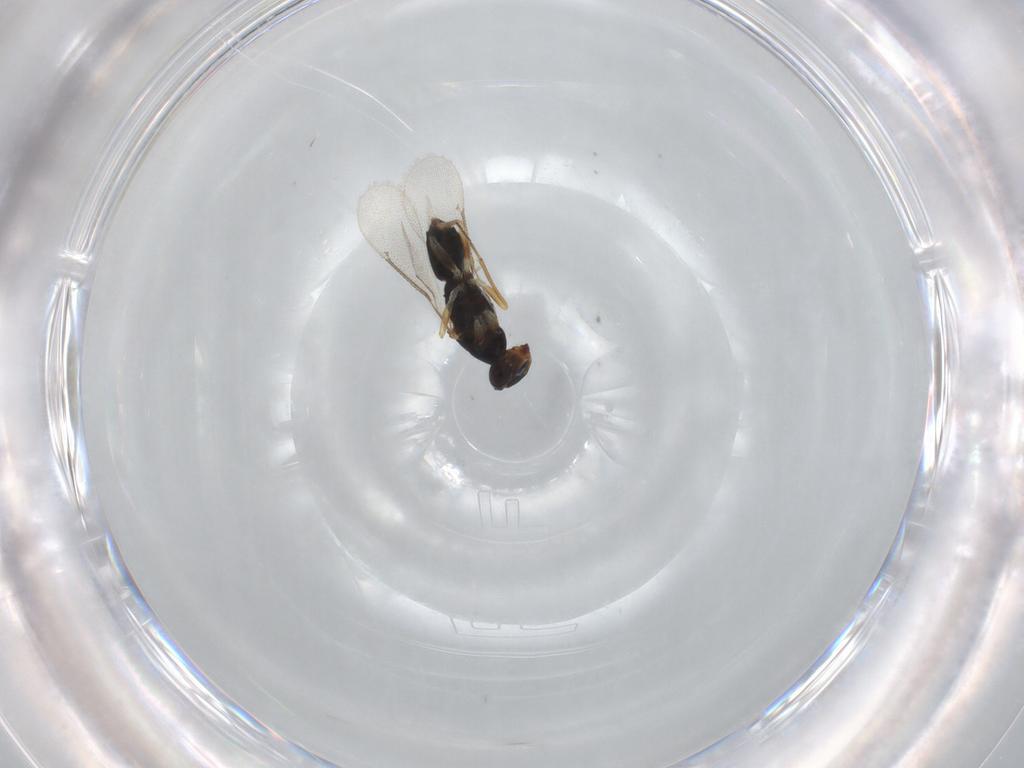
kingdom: Animalia
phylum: Arthropoda
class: Insecta
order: Hymenoptera
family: Eulophidae
